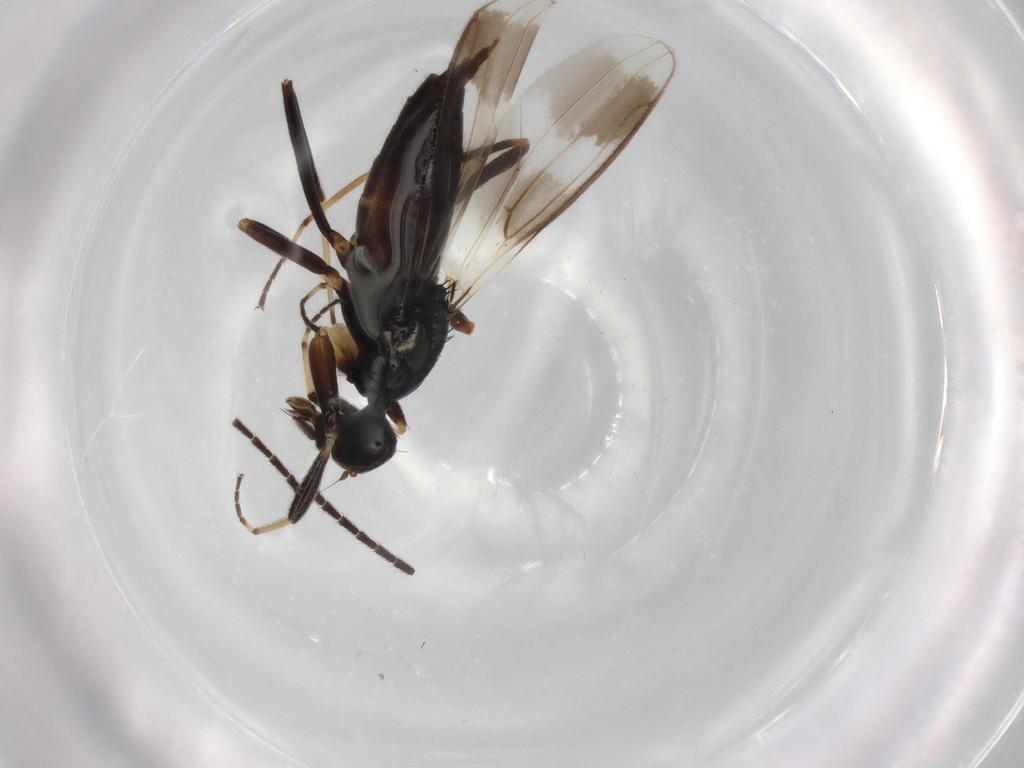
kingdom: Animalia
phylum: Arthropoda
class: Insecta
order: Diptera
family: Hybotidae
